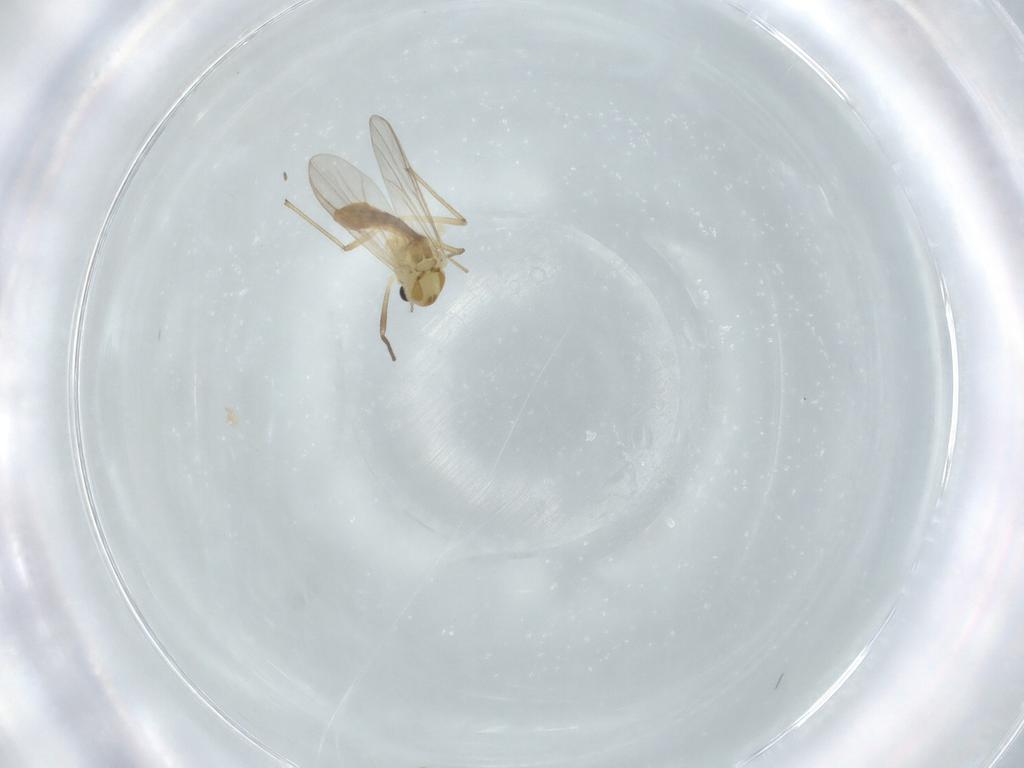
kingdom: Animalia
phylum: Arthropoda
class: Insecta
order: Diptera
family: Chironomidae
